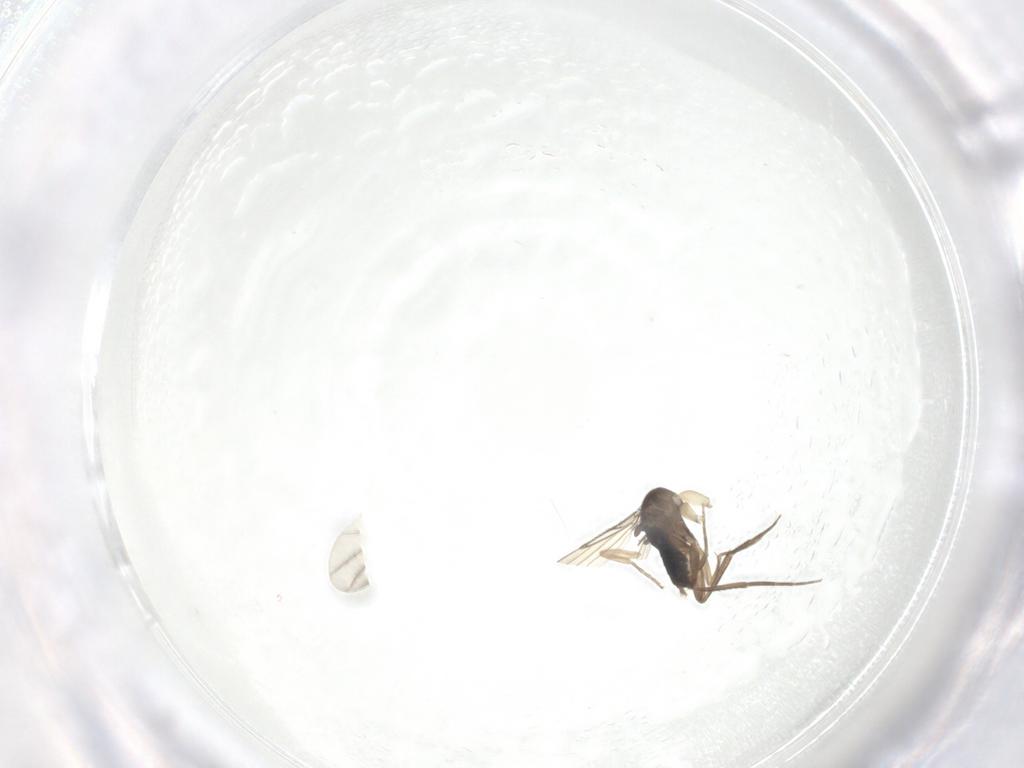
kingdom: Animalia
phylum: Arthropoda
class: Insecta
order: Diptera
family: Phoridae
